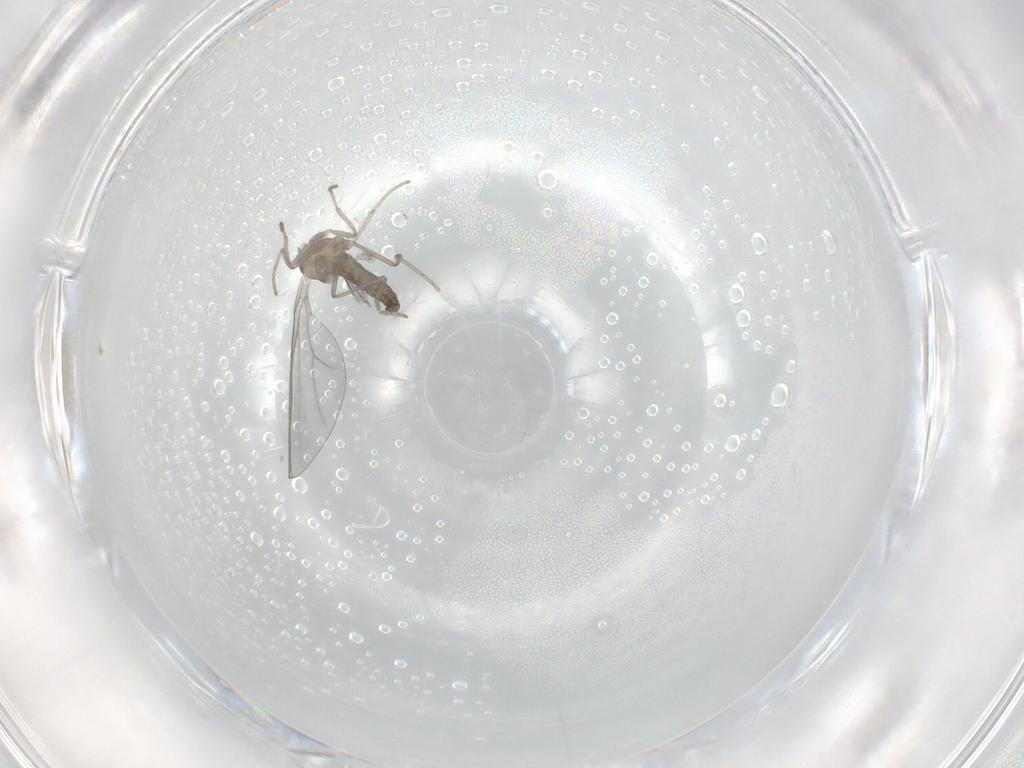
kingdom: Animalia
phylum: Arthropoda
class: Insecta
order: Diptera
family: Cecidomyiidae
